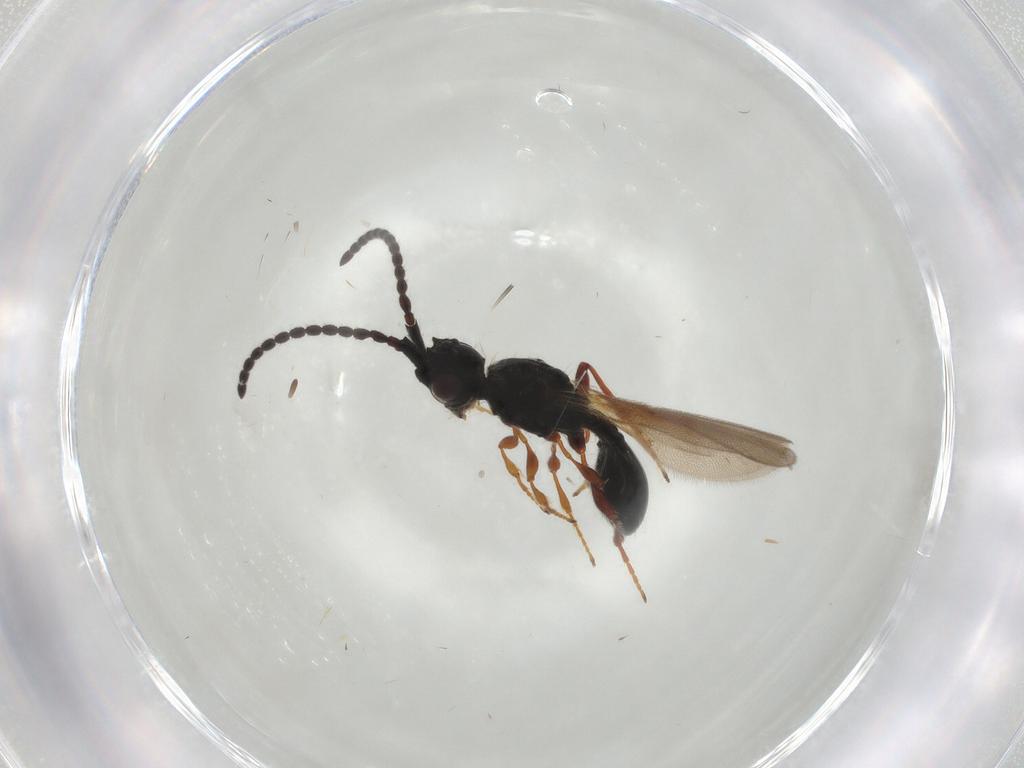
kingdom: Animalia
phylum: Arthropoda
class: Insecta
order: Hymenoptera
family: Diapriidae
